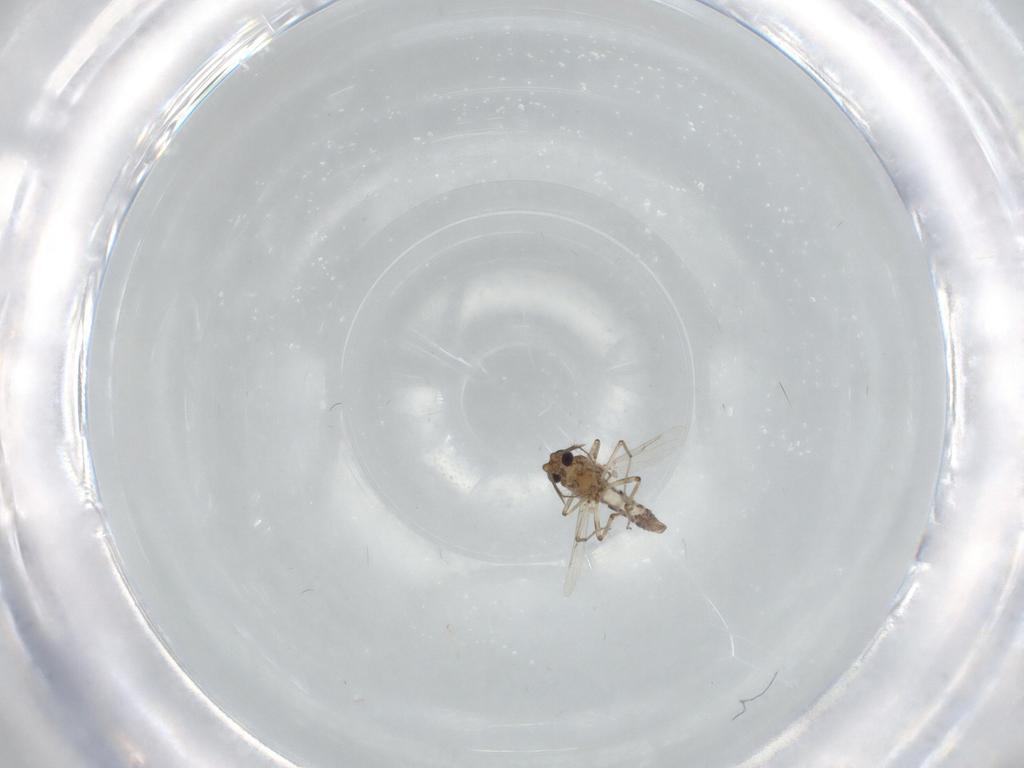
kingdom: Animalia
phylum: Arthropoda
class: Insecta
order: Diptera
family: Ceratopogonidae
